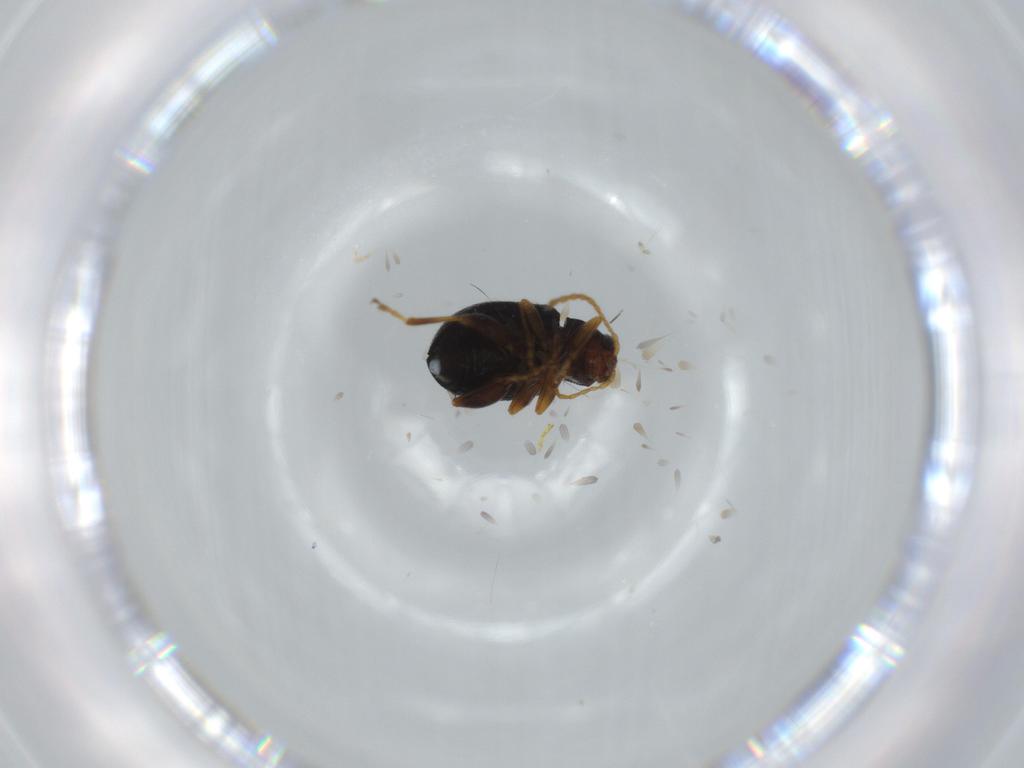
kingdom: Animalia
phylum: Arthropoda
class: Insecta
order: Coleoptera
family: Chrysomelidae
